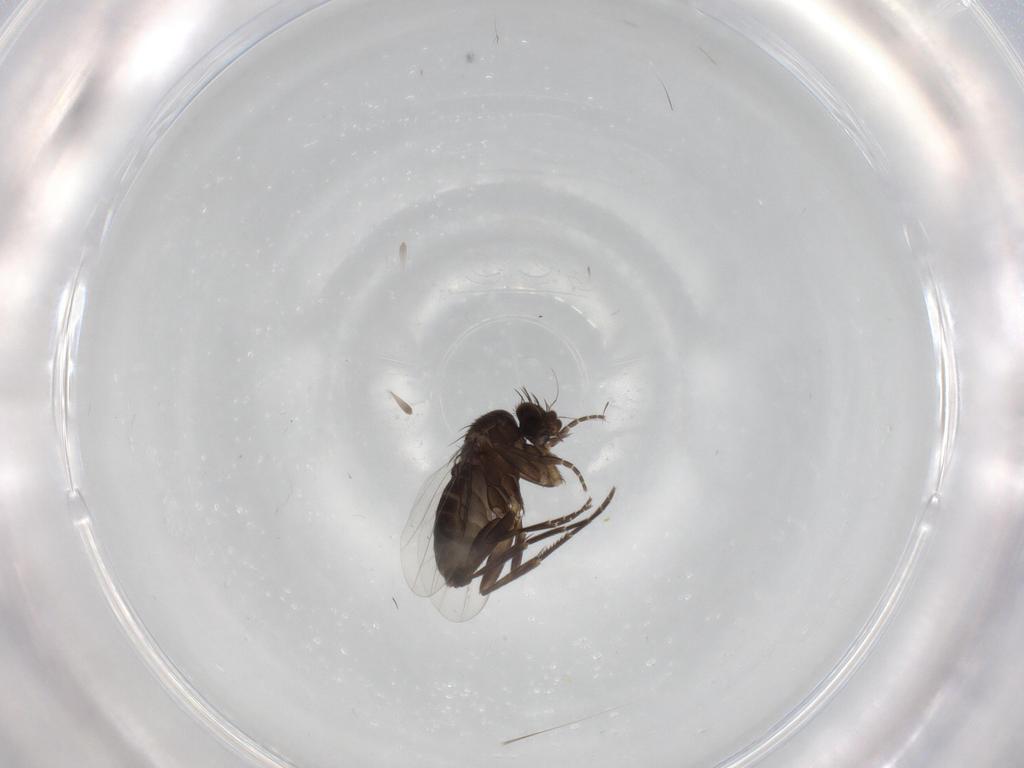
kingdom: Animalia
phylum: Arthropoda
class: Insecta
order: Diptera
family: Phoridae
